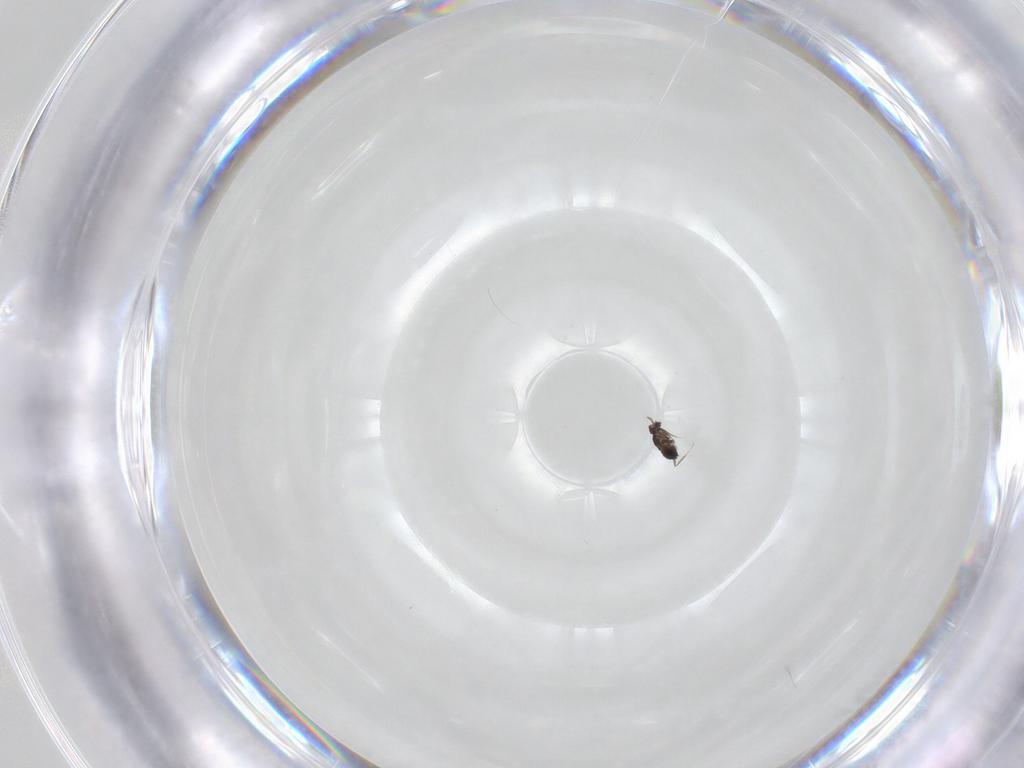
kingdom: Animalia
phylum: Arthropoda
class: Insecta
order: Hymenoptera
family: Mymaridae
